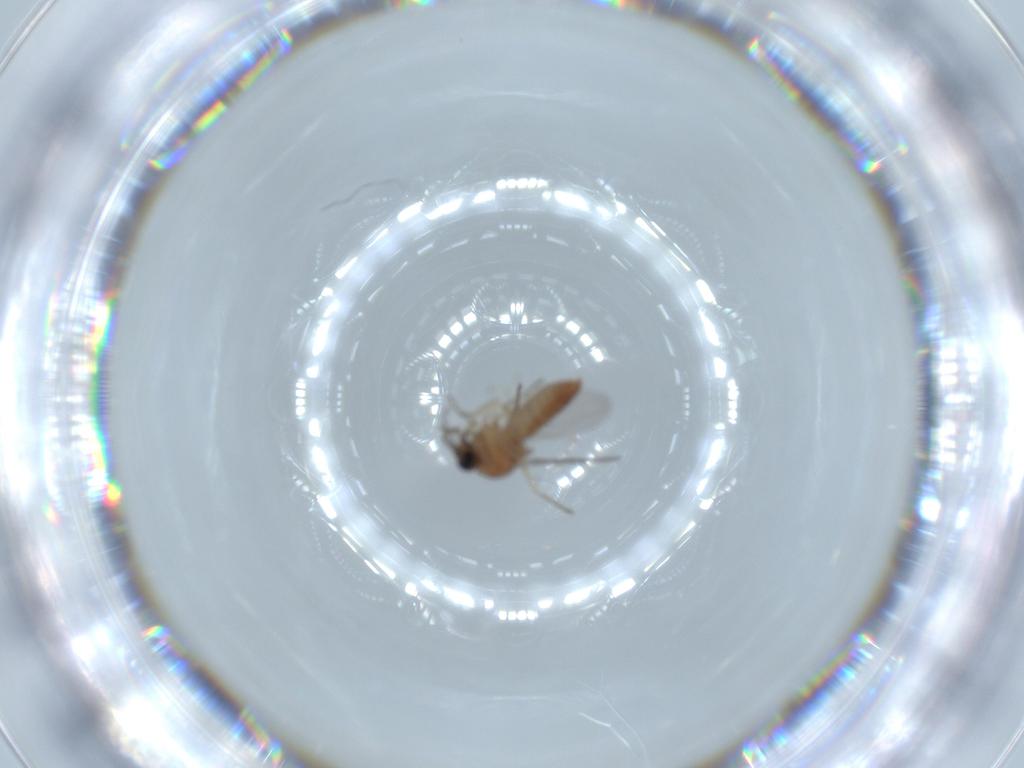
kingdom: Animalia
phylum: Arthropoda
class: Insecta
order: Diptera
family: Ceratopogonidae
